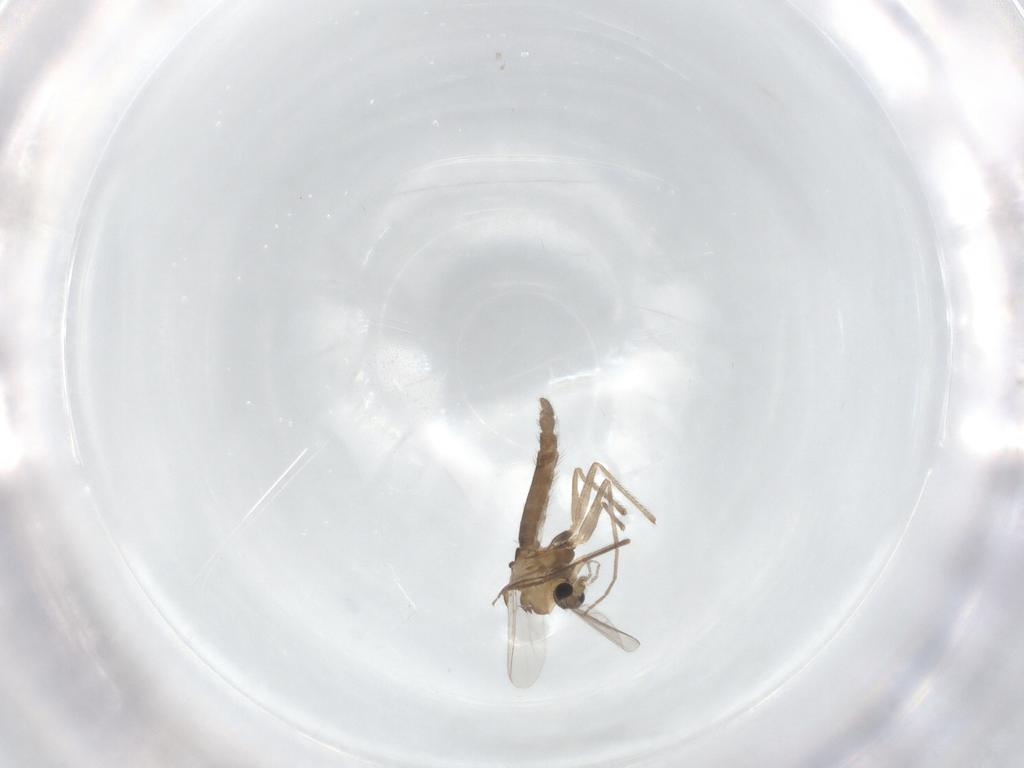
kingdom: Animalia
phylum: Arthropoda
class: Insecta
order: Diptera
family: Chironomidae
